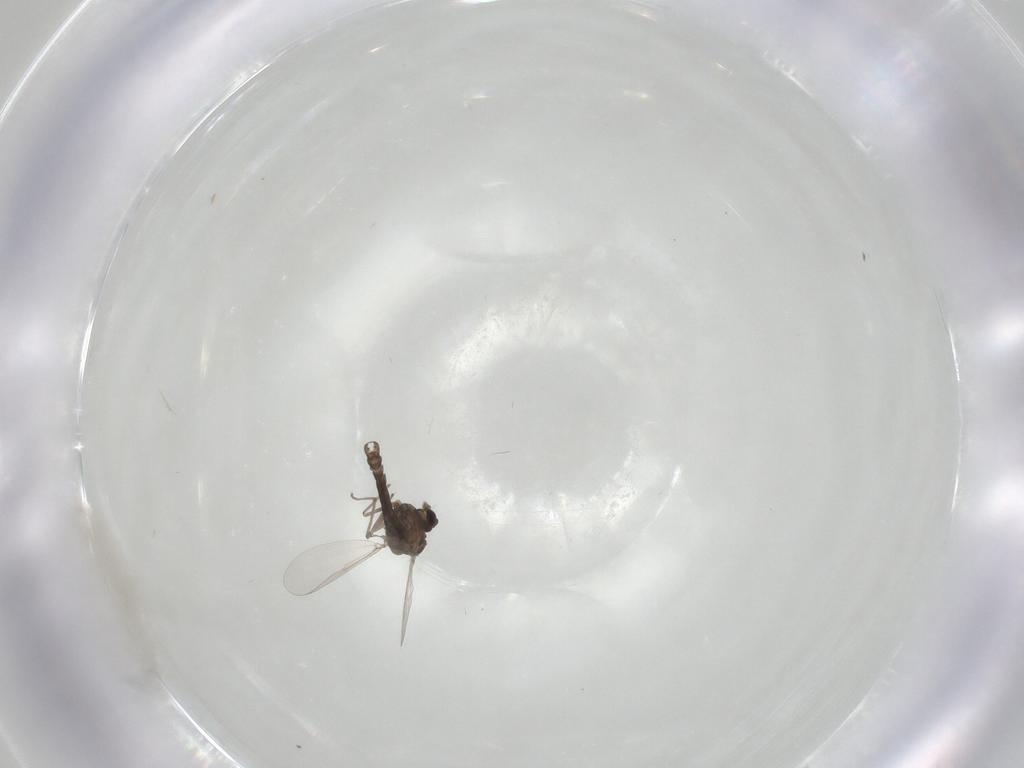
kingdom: Animalia
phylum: Arthropoda
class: Insecta
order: Diptera
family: Cecidomyiidae
